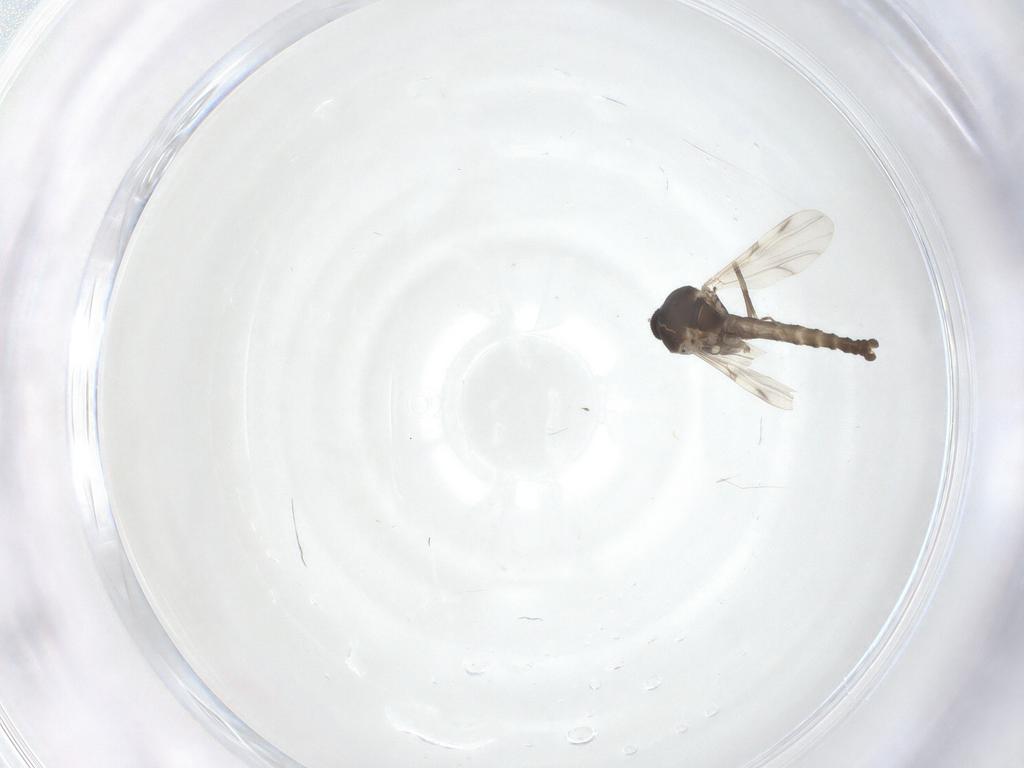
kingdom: Animalia
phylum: Arthropoda
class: Insecta
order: Diptera
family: Ceratopogonidae
